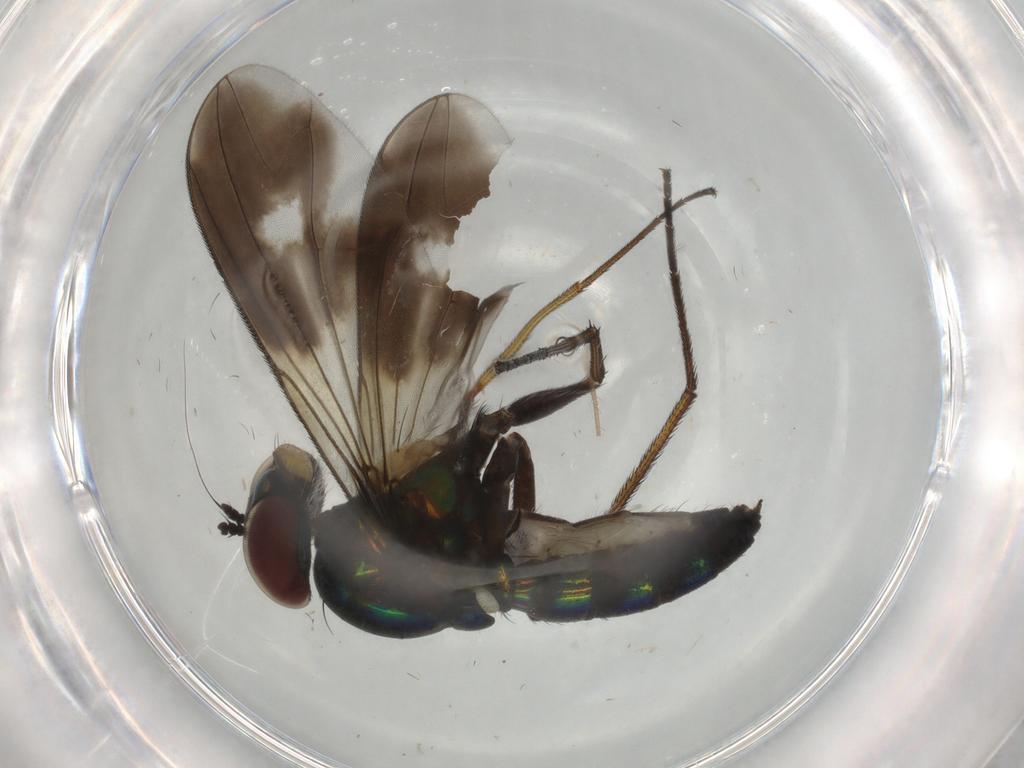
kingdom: Animalia
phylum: Arthropoda
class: Insecta
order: Diptera
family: Dolichopodidae
